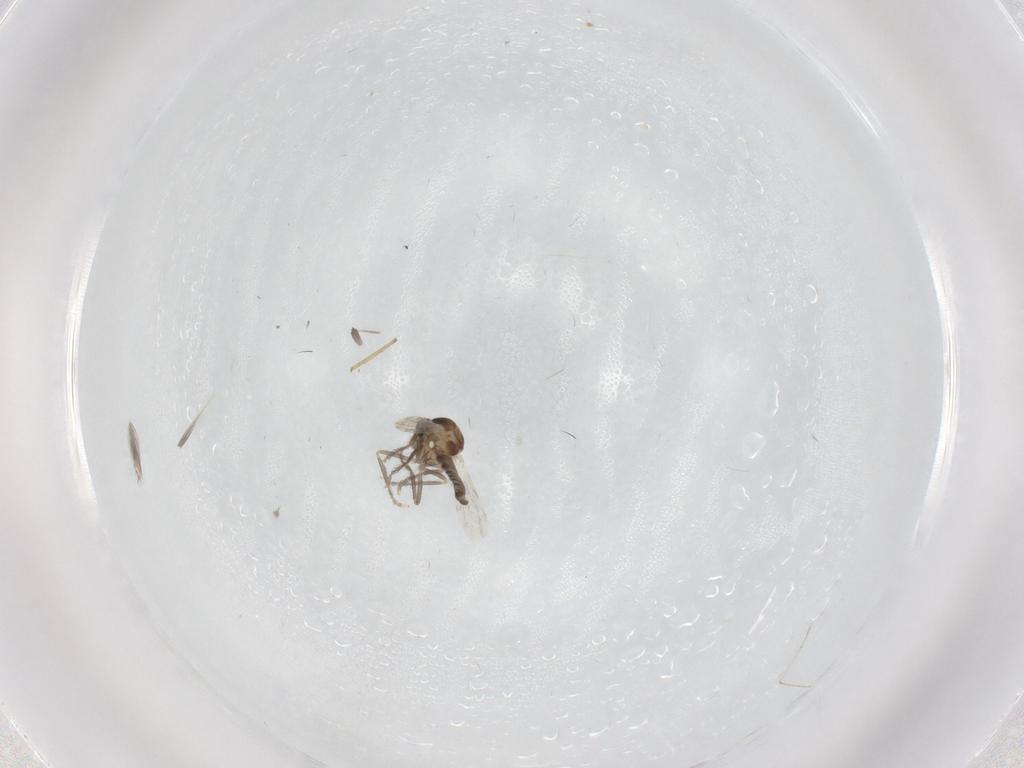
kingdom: Animalia
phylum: Arthropoda
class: Insecta
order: Diptera
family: Ceratopogonidae
